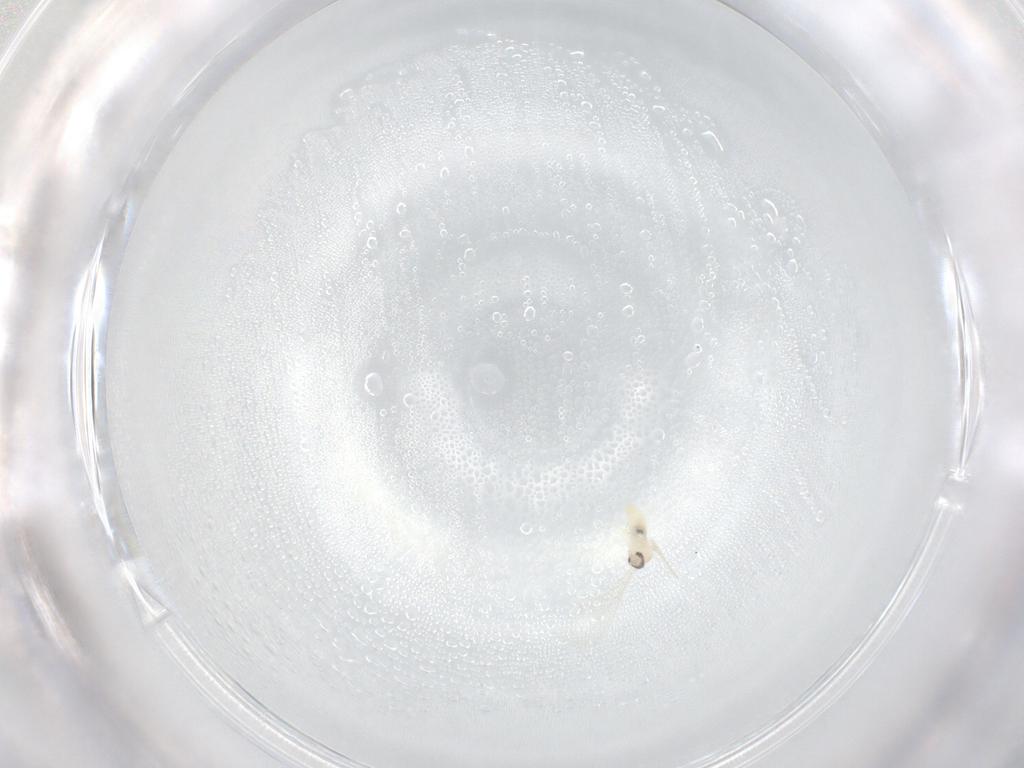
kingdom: Animalia
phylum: Arthropoda
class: Insecta
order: Diptera
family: Cecidomyiidae
